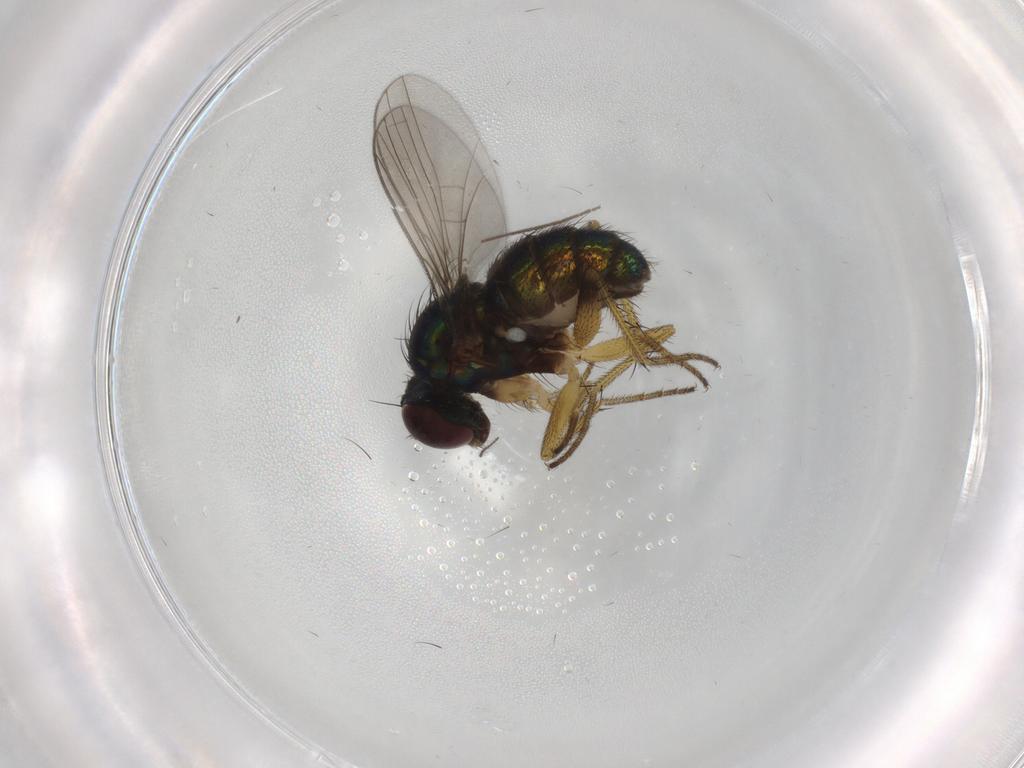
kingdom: Animalia
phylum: Arthropoda
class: Insecta
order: Diptera
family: Dolichopodidae
